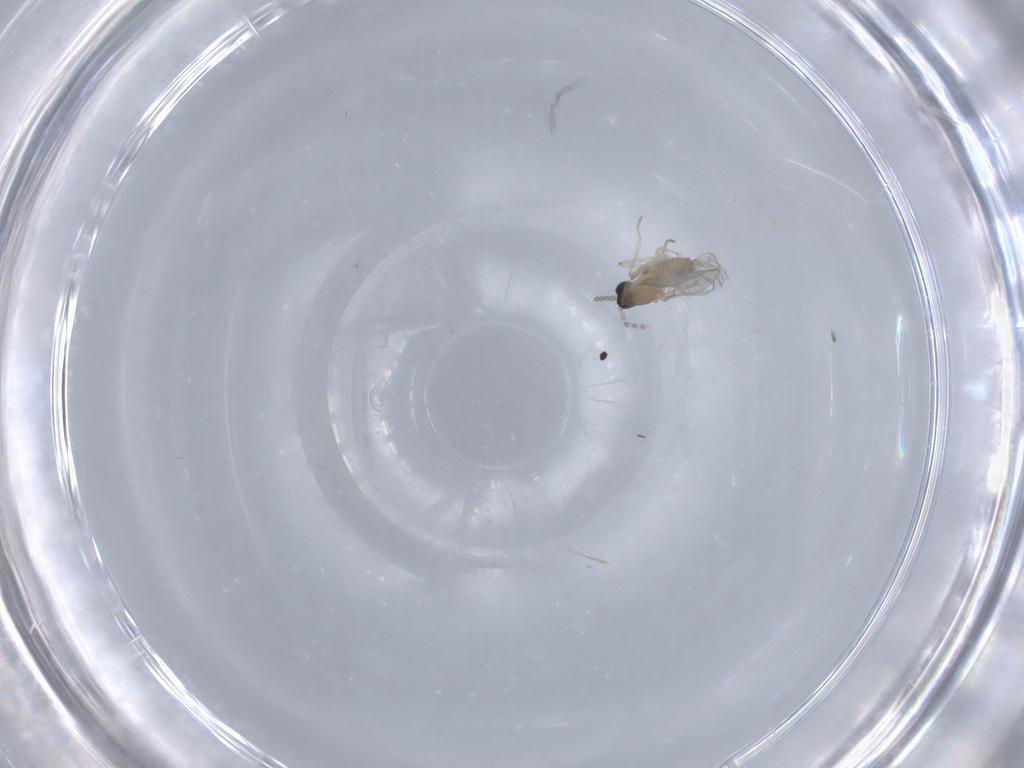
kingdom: Animalia
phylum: Arthropoda
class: Insecta
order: Diptera
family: Cecidomyiidae
